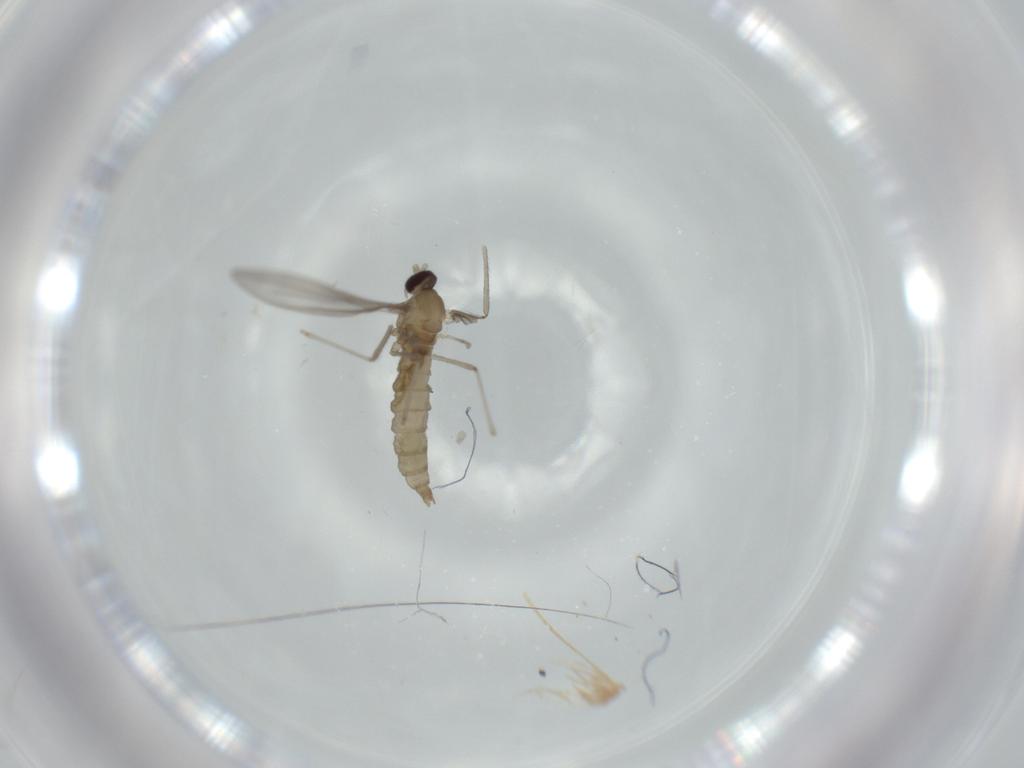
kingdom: Animalia
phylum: Arthropoda
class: Insecta
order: Diptera
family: Cecidomyiidae
